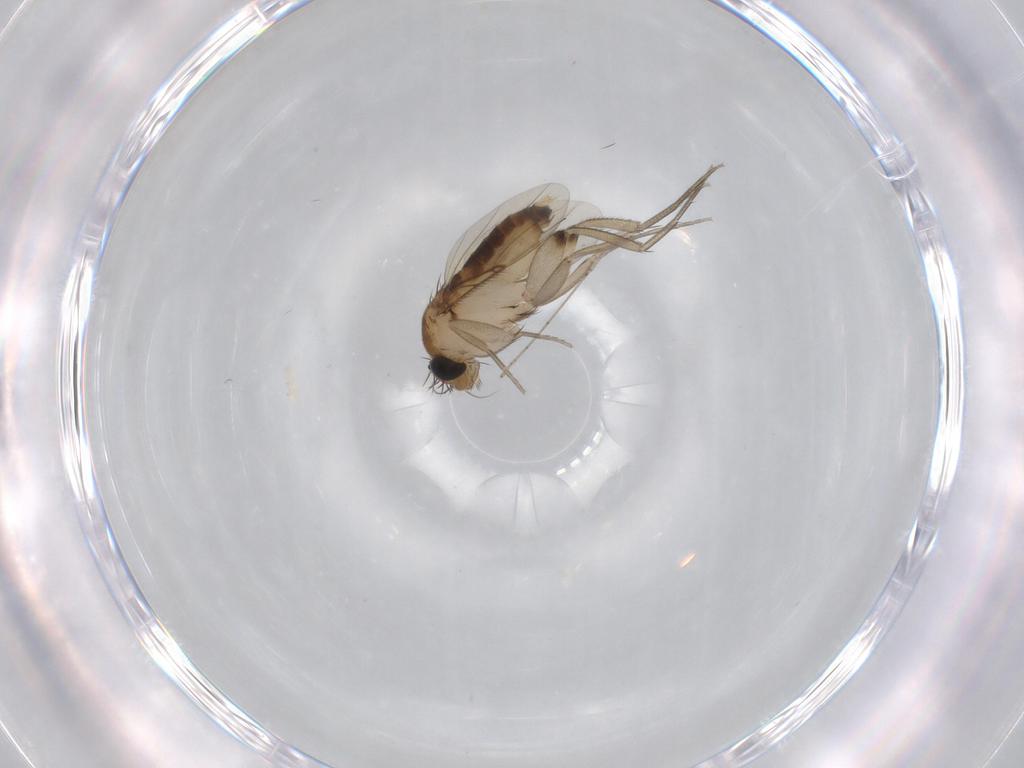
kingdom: Animalia
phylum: Arthropoda
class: Insecta
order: Diptera
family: Phoridae
